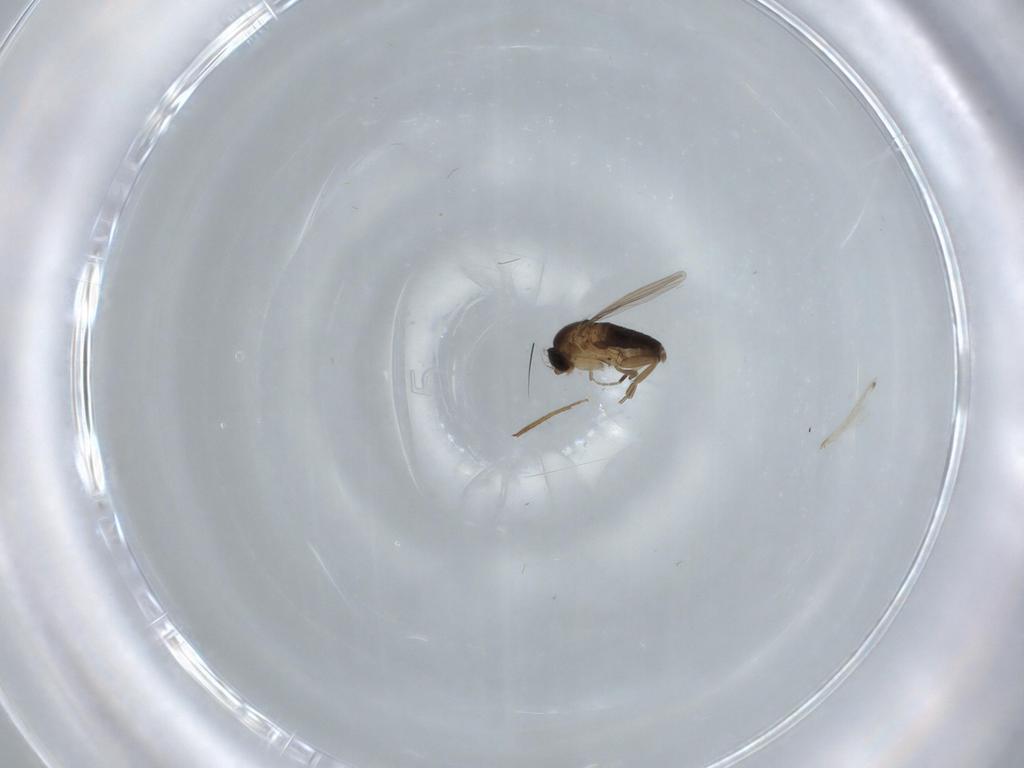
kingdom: Animalia
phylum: Arthropoda
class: Insecta
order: Diptera
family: Phoridae
